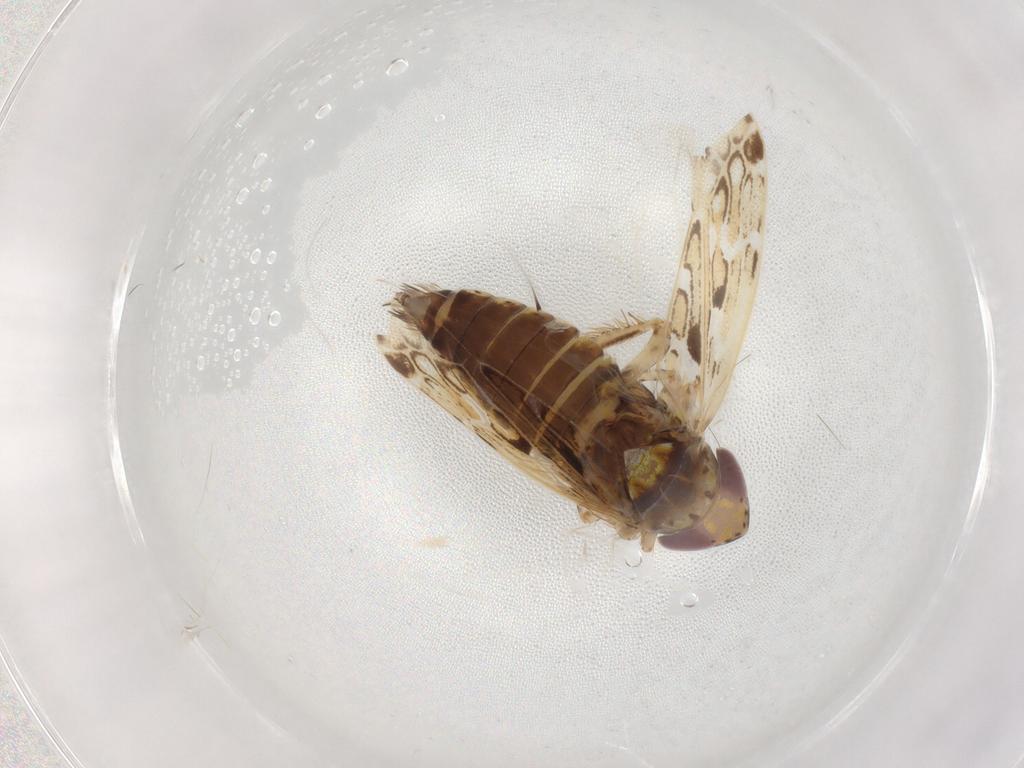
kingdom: Animalia
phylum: Arthropoda
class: Insecta
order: Hemiptera
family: Cicadellidae
